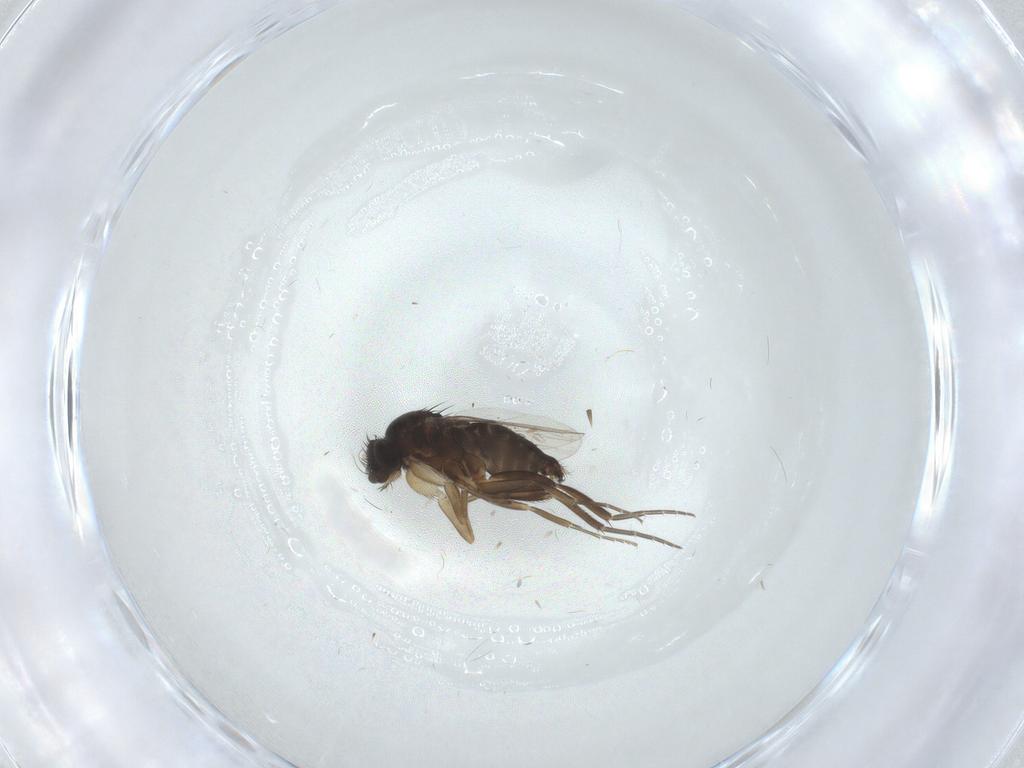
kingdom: Animalia
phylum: Arthropoda
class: Insecta
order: Diptera
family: Phoridae
